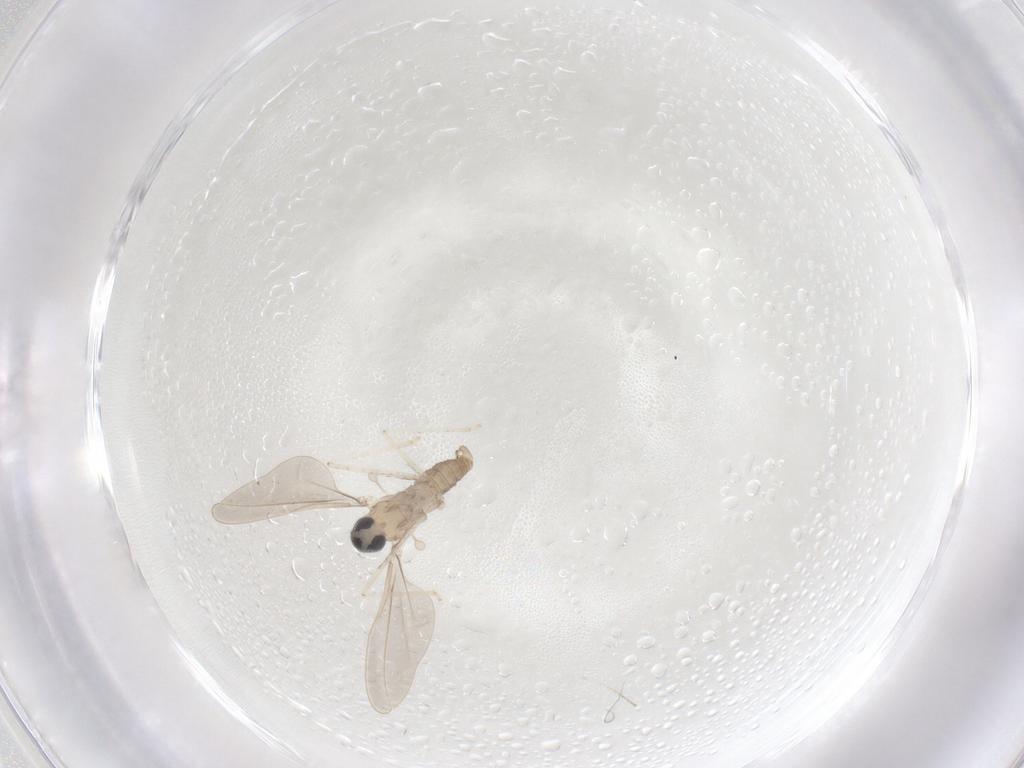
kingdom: Animalia
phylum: Arthropoda
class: Insecta
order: Diptera
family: Cecidomyiidae
